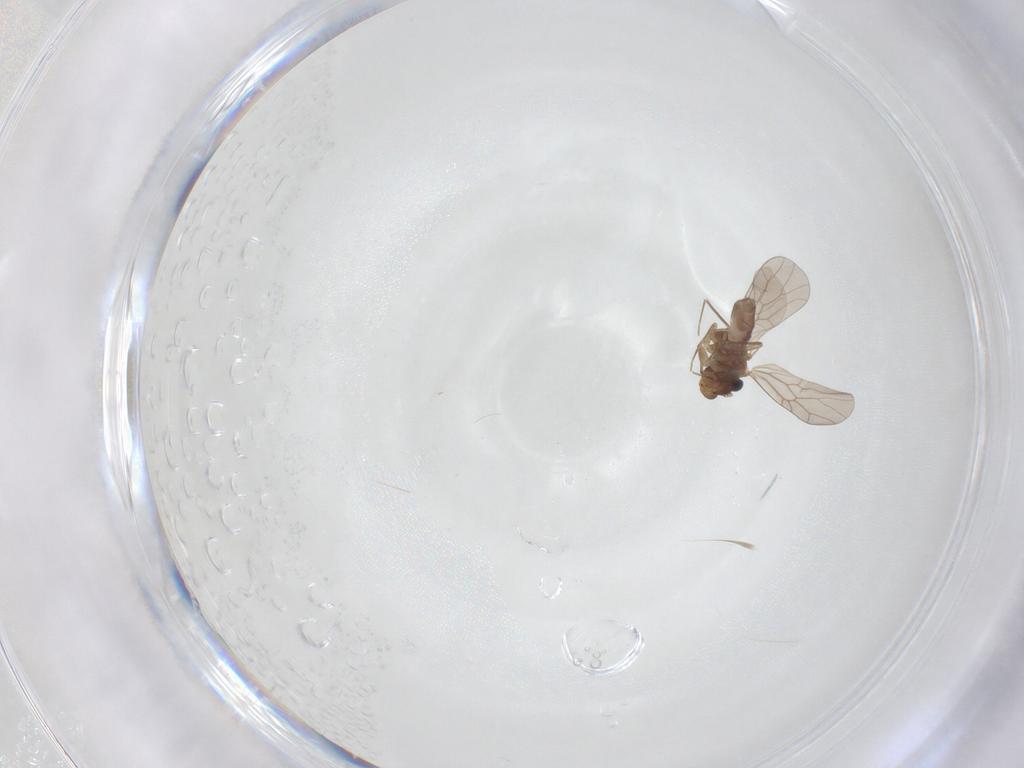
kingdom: Animalia
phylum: Arthropoda
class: Insecta
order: Psocodea
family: Lepidopsocidae
